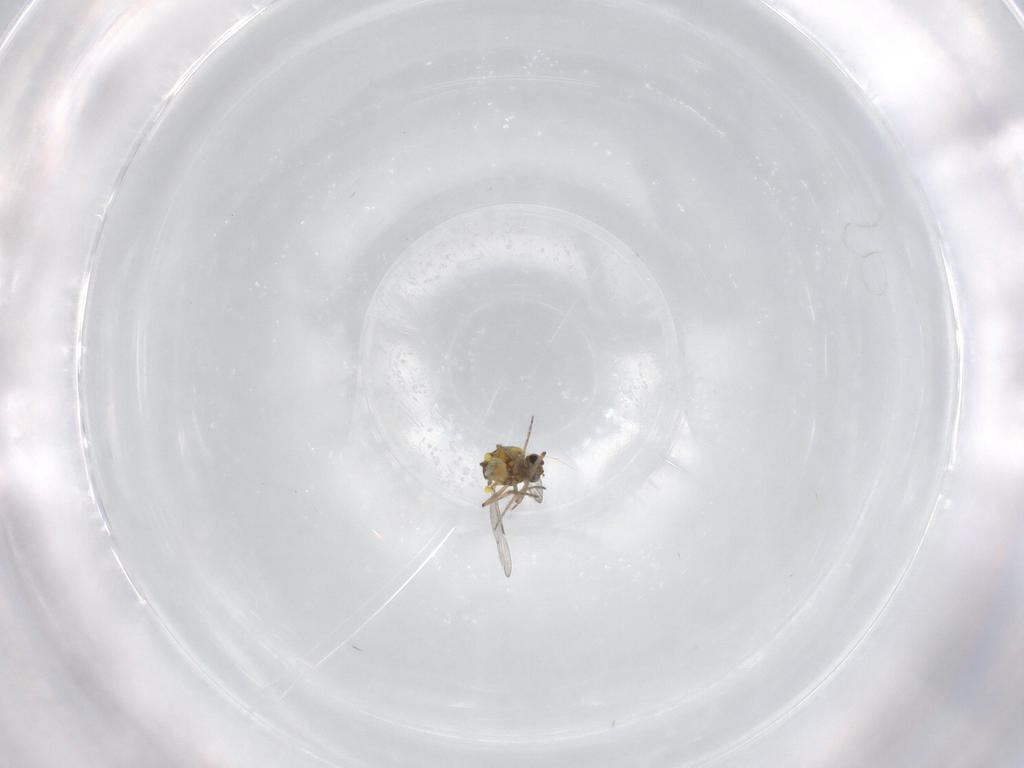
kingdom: Animalia
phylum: Arthropoda
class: Insecta
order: Diptera
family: Ceratopogonidae
